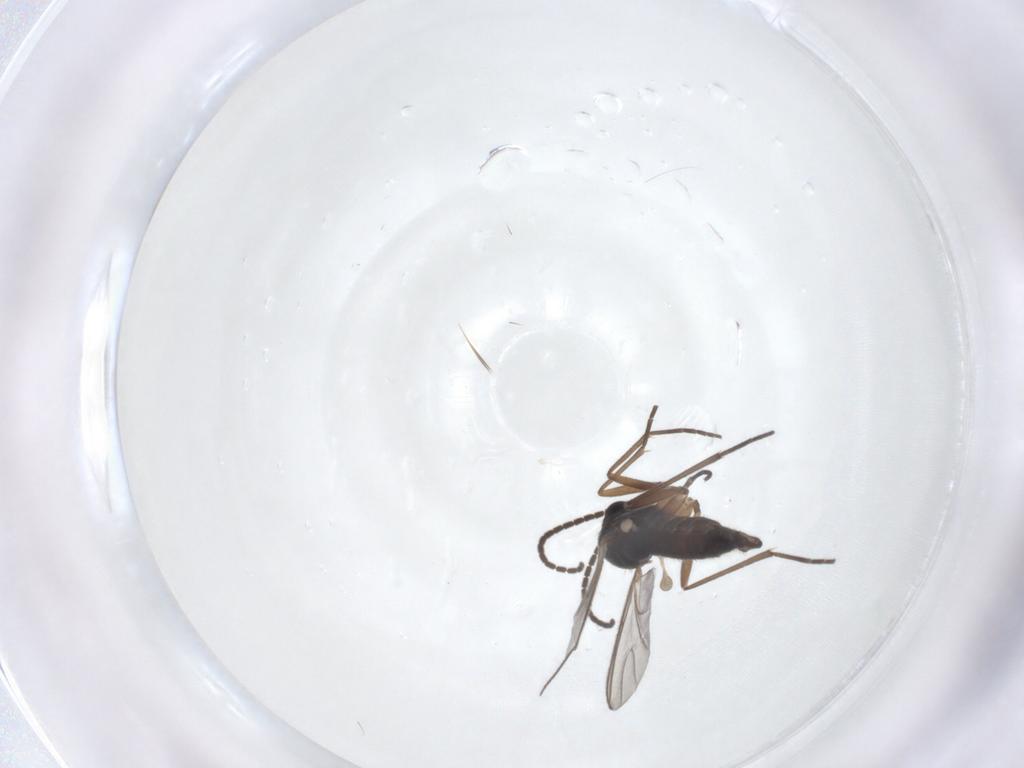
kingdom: Animalia
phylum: Arthropoda
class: Insecta
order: Diptera
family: Sciaridae
